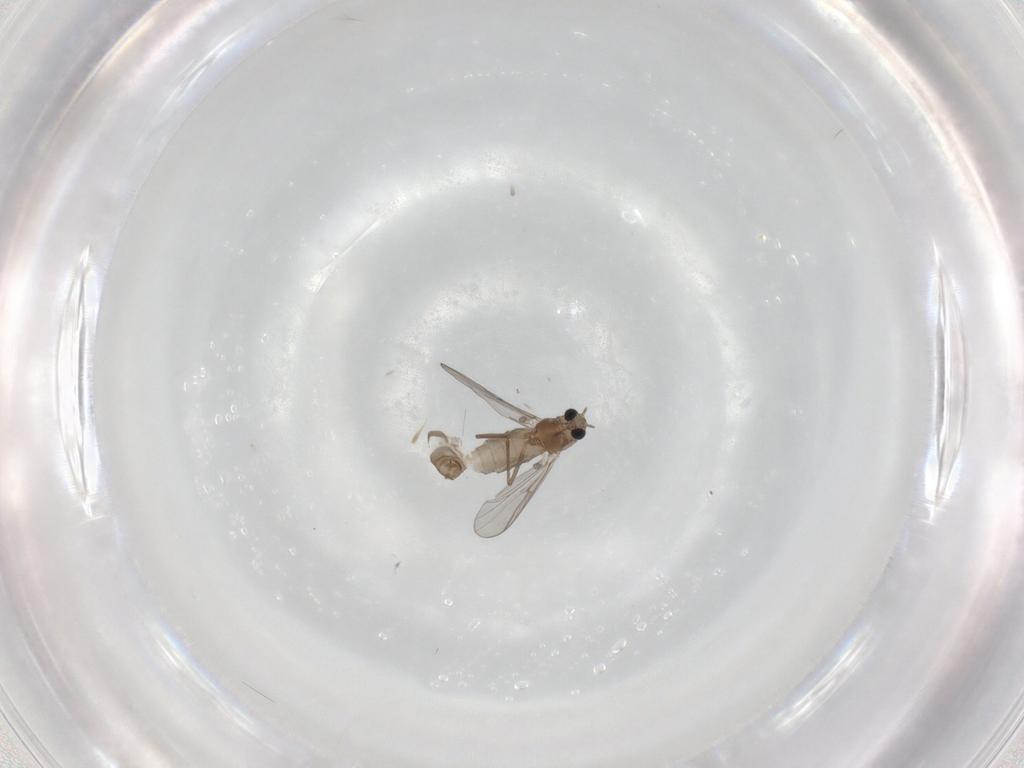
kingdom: Animalia
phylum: Arthropoda
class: Insecta
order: Diptera
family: Chironomidae
